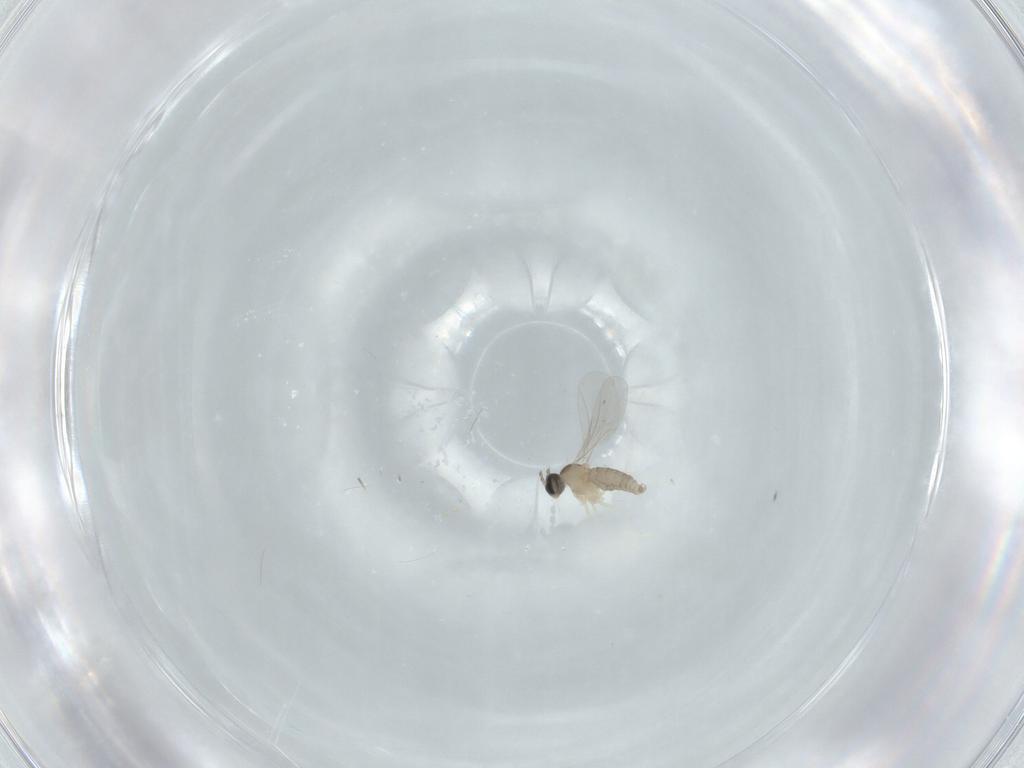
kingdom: Animalia
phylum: Arthropoda
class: Insecta
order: Diptera
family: Cecidomyiidae
